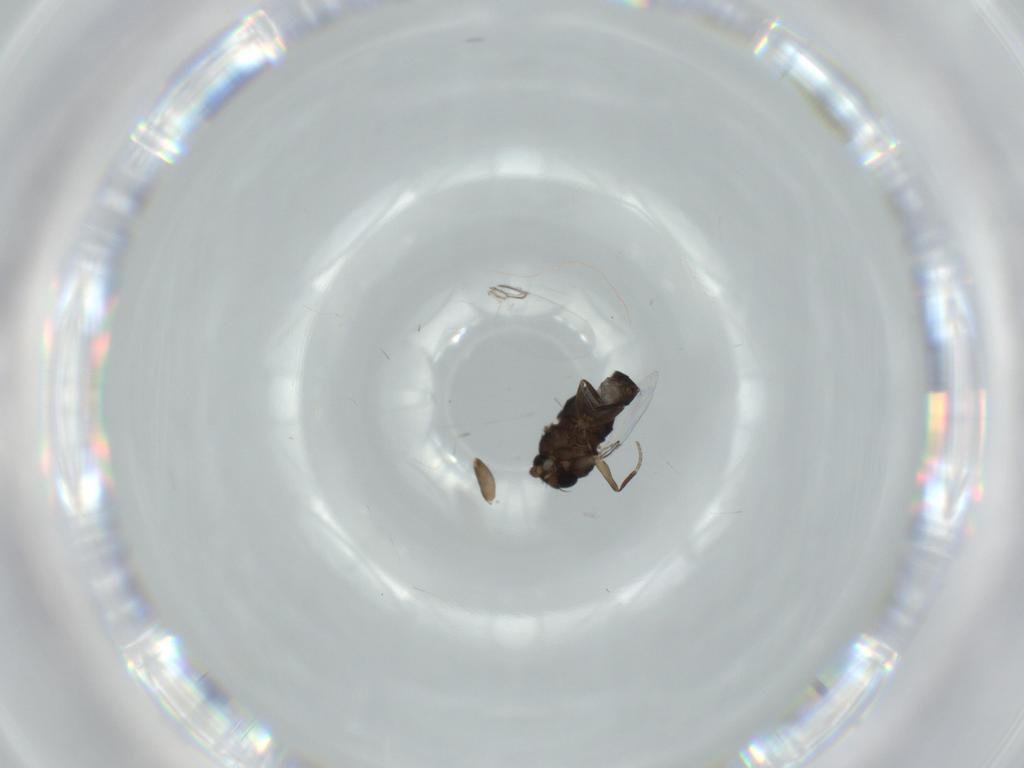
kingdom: Animalia
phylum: Arthropoda
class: Insecta
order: Diptera
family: Phoridae
